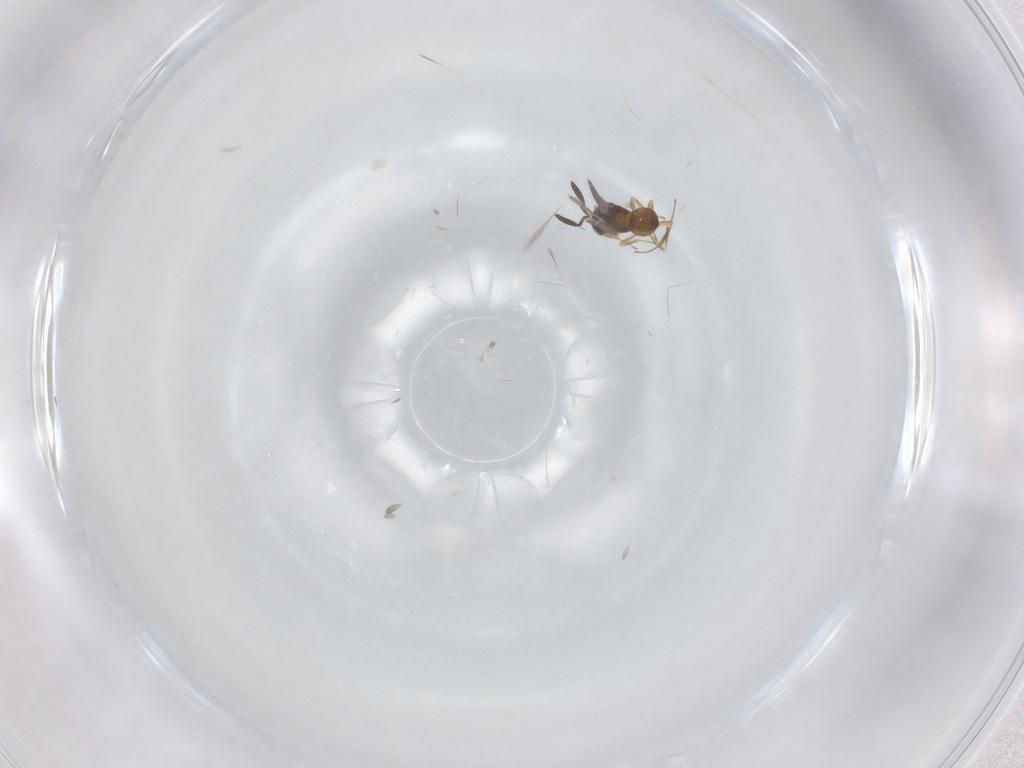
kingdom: Animalia
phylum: Arthropoda
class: Insecta
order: Hymenoptera
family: Scelionidae
